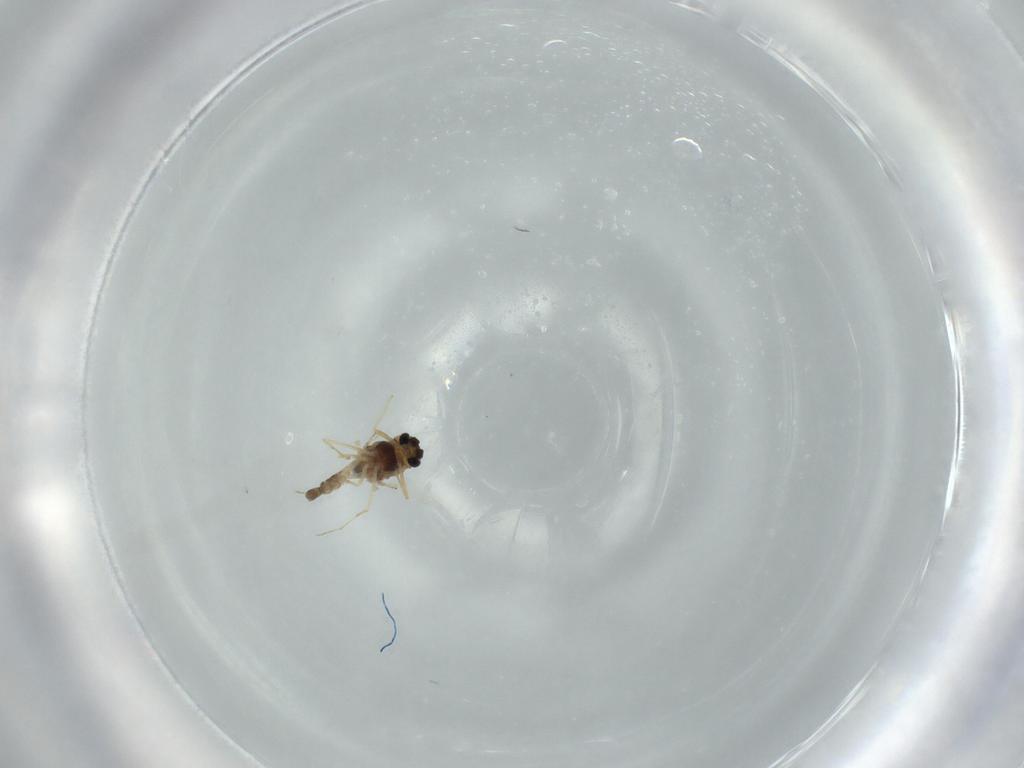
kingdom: Animalia
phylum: Arthropoda
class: Insecta
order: Diptera
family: Chironomidae
